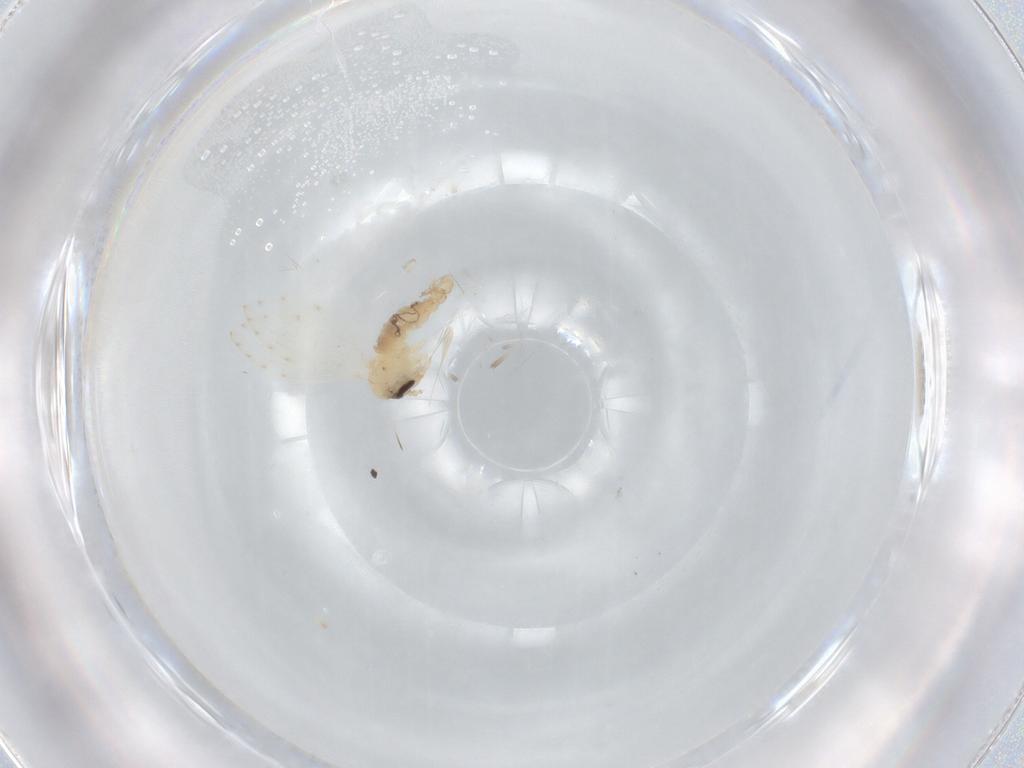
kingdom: Animalia
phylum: Arthropoda
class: Insecta
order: Diptera
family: Psychodidae
